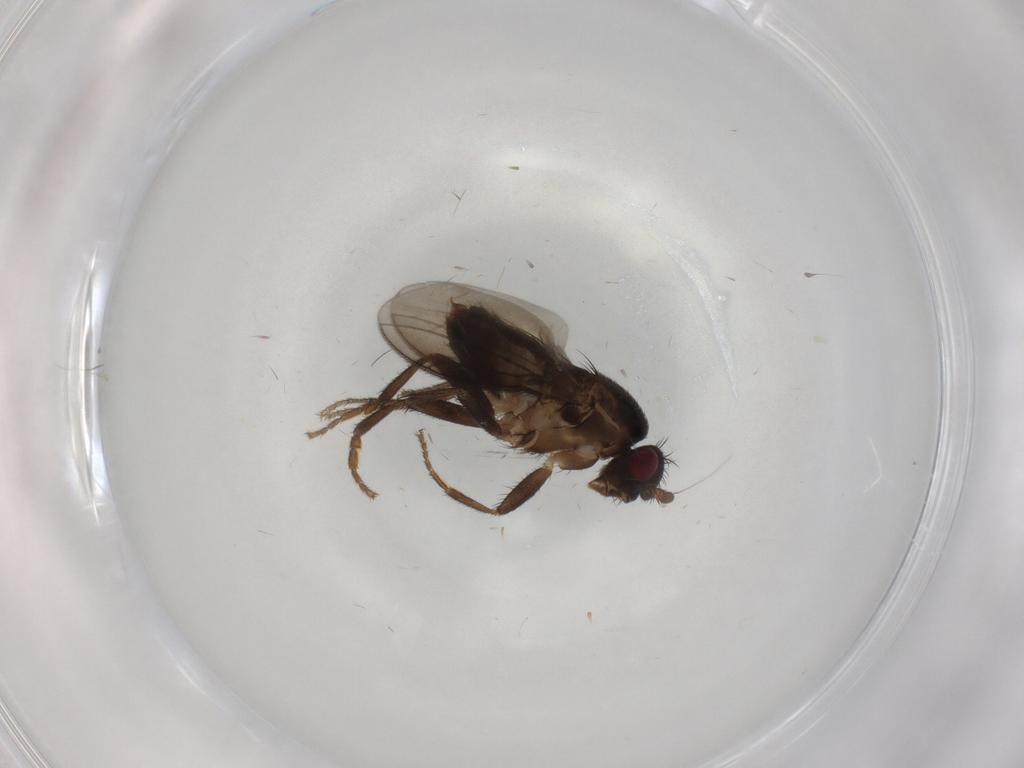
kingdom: Animalia
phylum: Arthropoda
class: Insecta
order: Diptera
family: Sphaeroceridae
